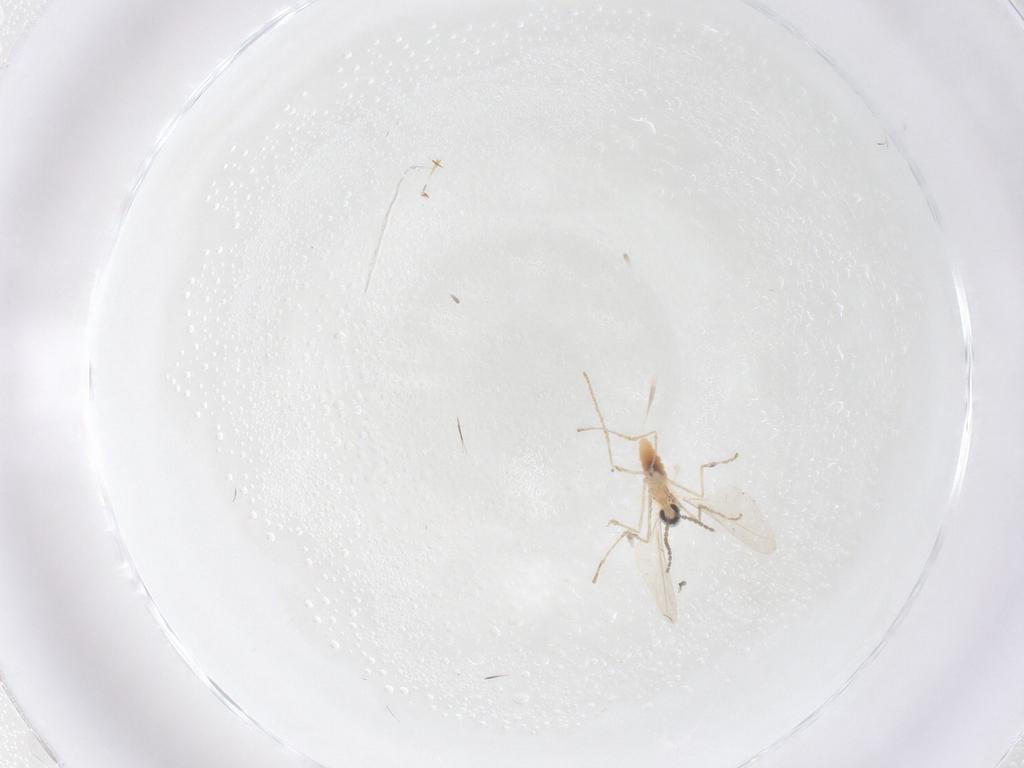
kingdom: Animalia
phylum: Arthropoda
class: Insecta
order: Diptera
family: Cecidomyiidae
